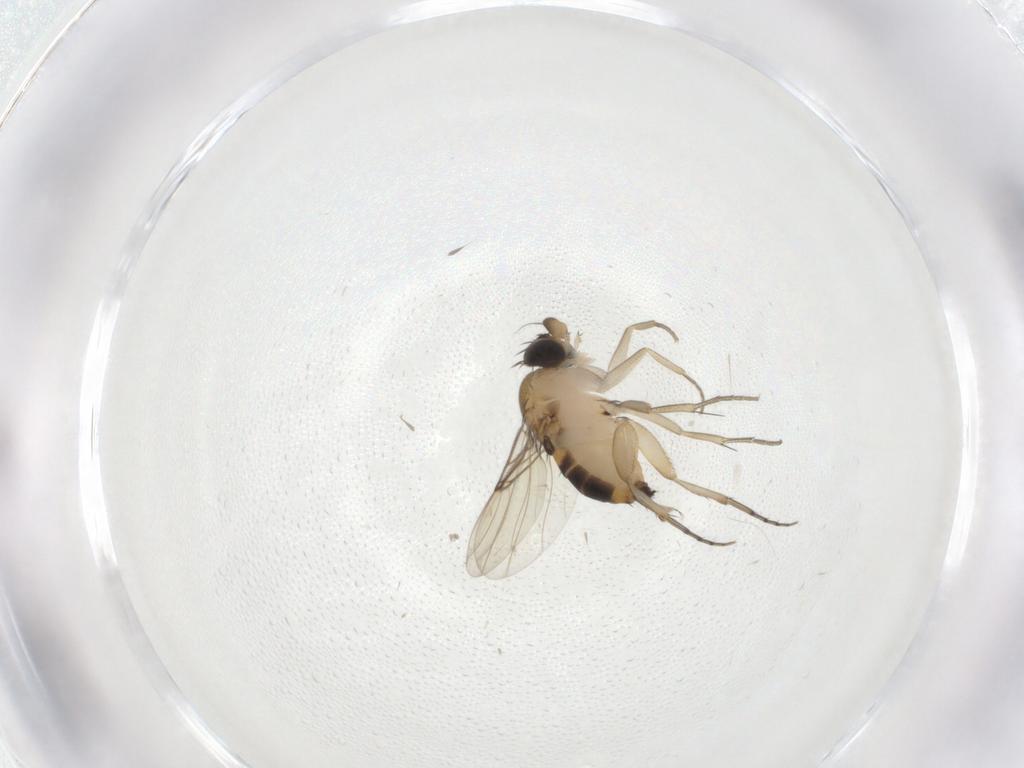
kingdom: Animalia
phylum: Arthropoda
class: Insecta
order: Diptera
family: Phoridae
